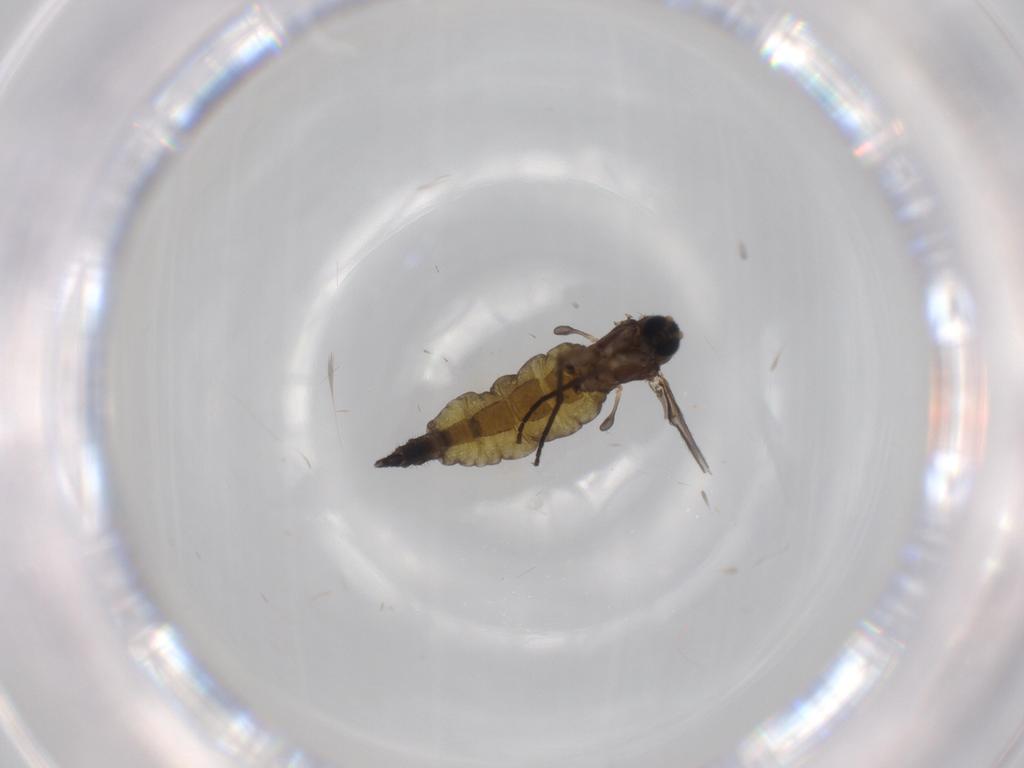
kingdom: Animalia
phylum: Arthropoda
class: Insecta
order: Diptera
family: Sciaridae
